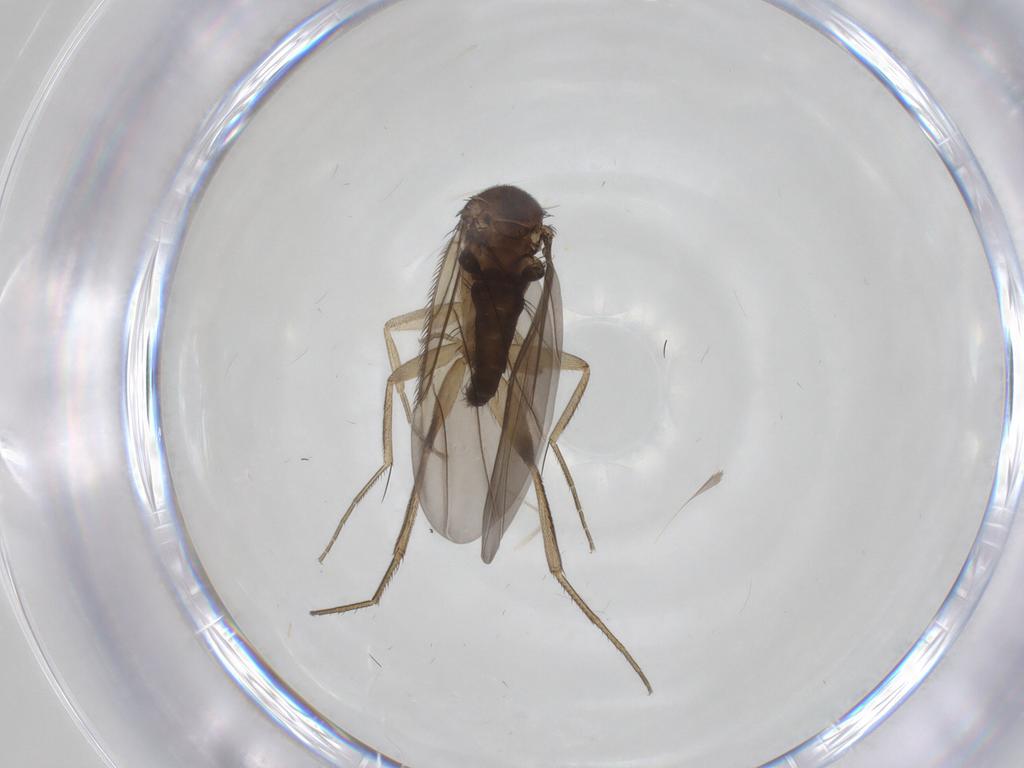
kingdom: Animalia
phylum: Arthropoda
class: Insecta
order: Diptera
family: Phoridae
